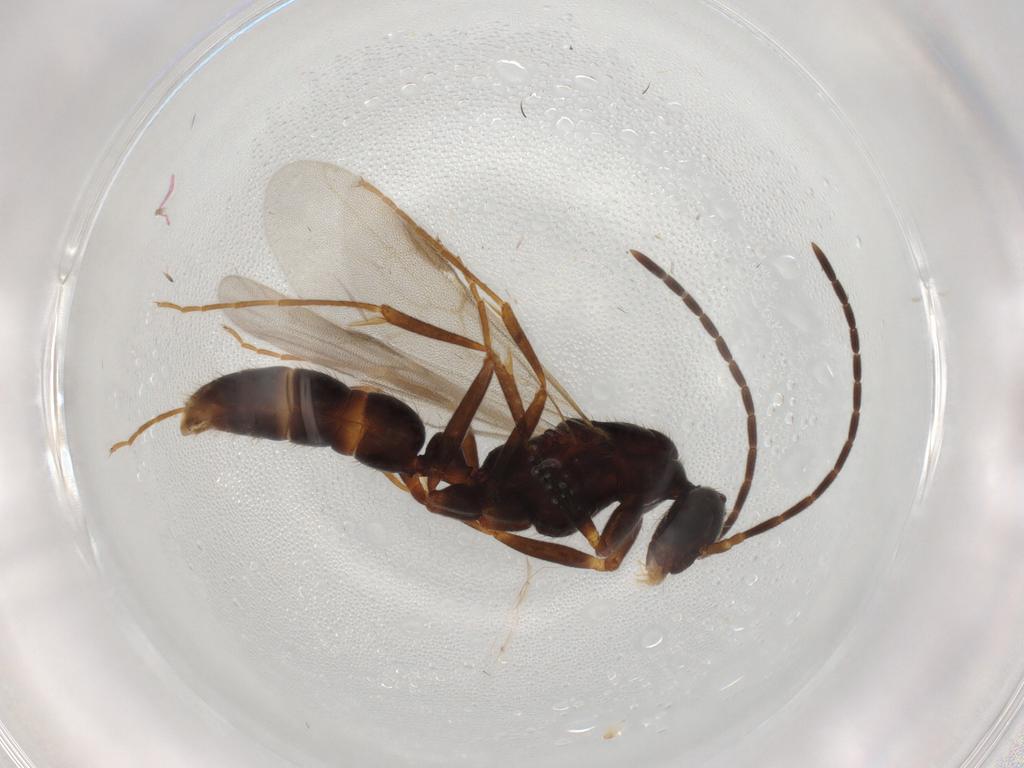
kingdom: Animalia
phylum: Arthropoda
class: Insecta
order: Hymenoptera
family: Formicidae
